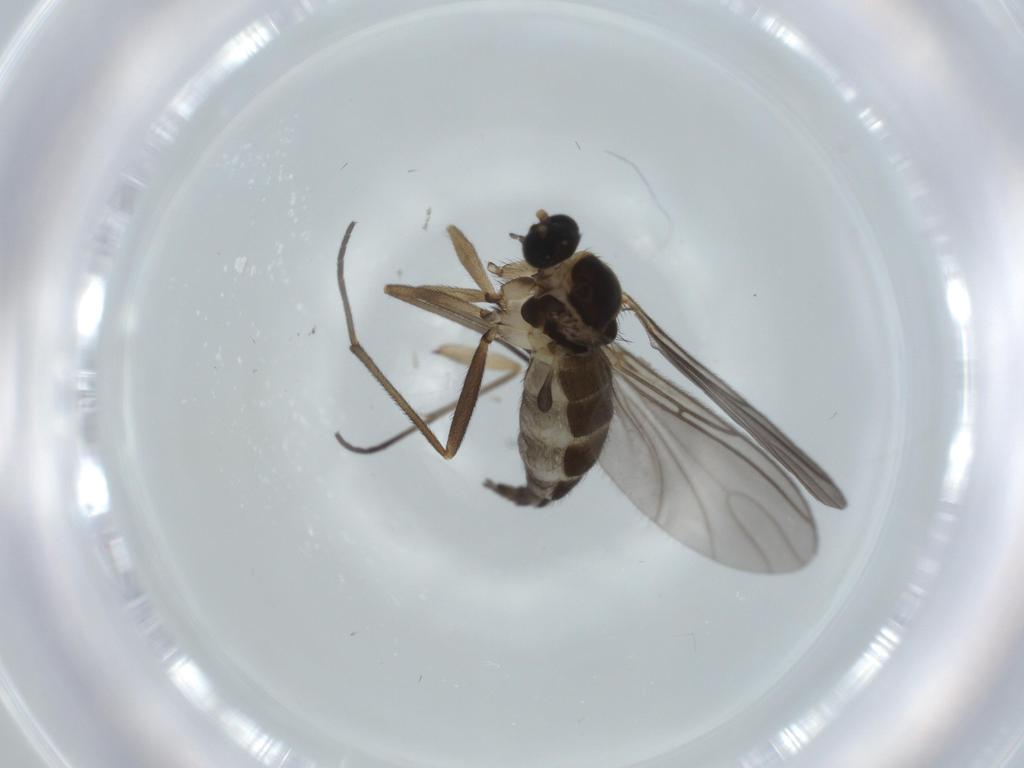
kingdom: Animalia
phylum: Arthropoda
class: Insecta
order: Diptera
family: Sciaridae
